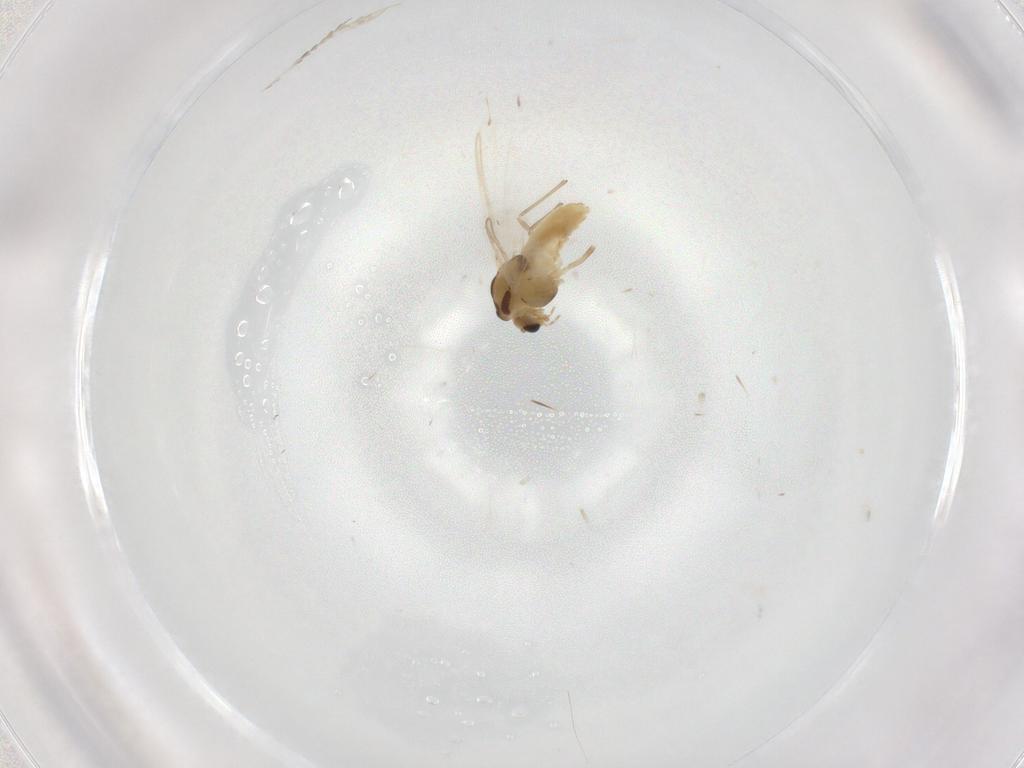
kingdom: Animalia
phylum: Arthropoda
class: Insecta
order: Diptera
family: Chironomidae
